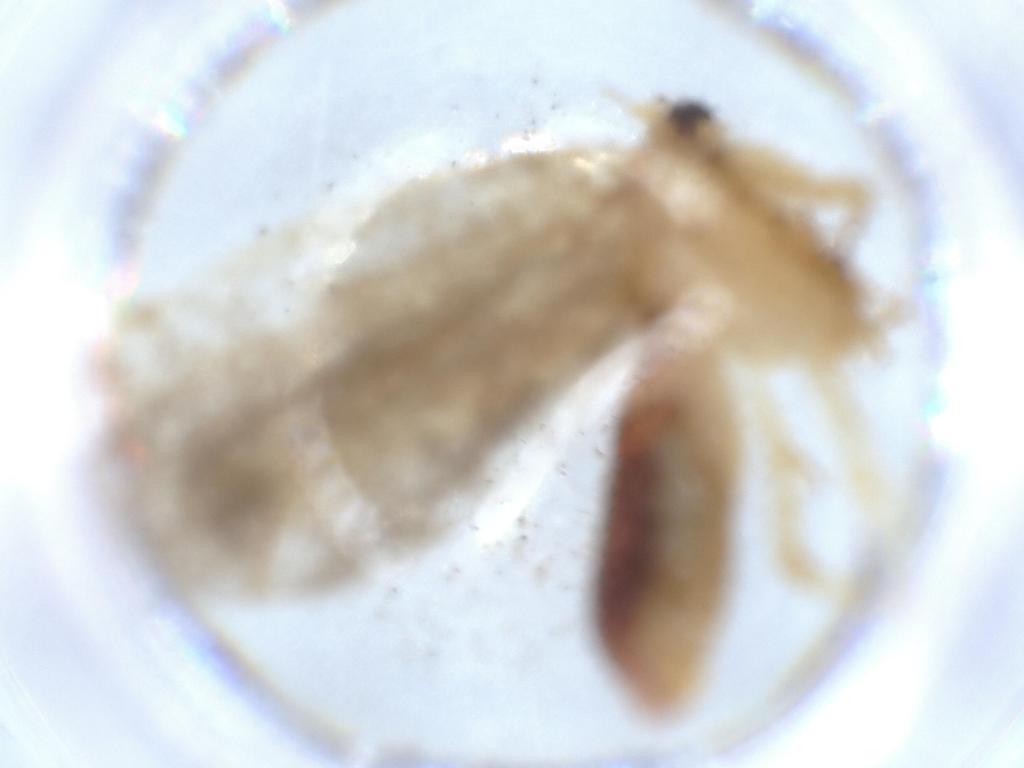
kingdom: Animalia
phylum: Arthropoda
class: Insecta
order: Lepidoptera
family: Tineidae
